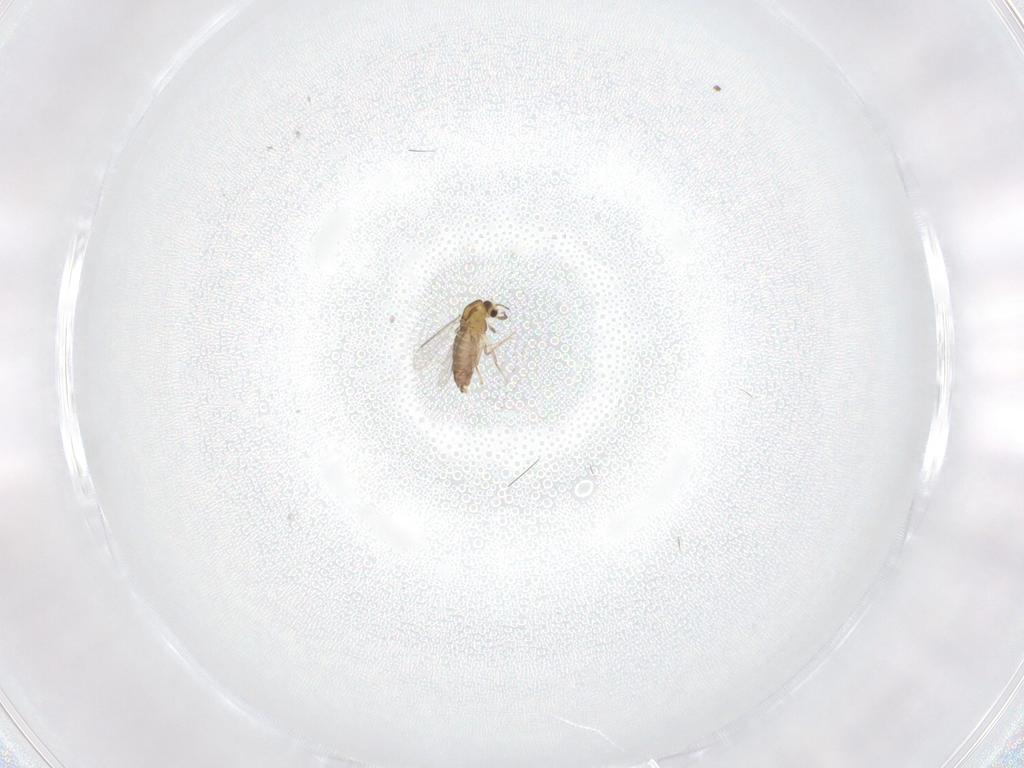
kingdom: Animalia
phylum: Arthropoda
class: Insecta
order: Diptera
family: Chironomidae
